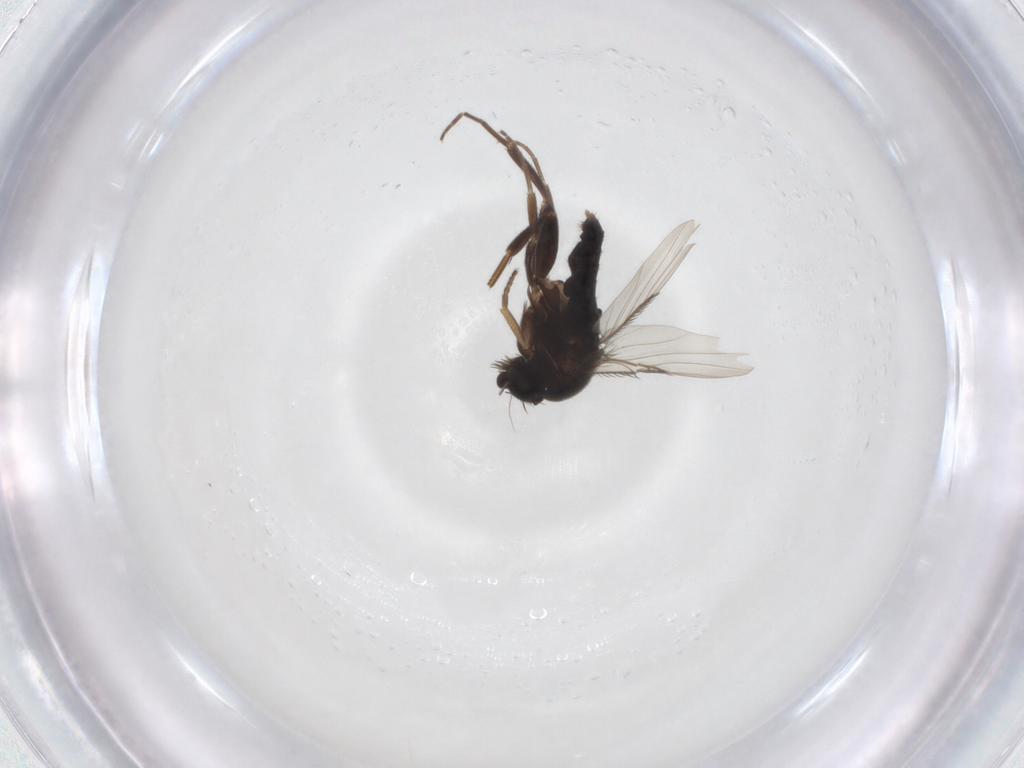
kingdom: Animalia
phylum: Arthropoda
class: Insecta
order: Diptera
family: Phoridae
